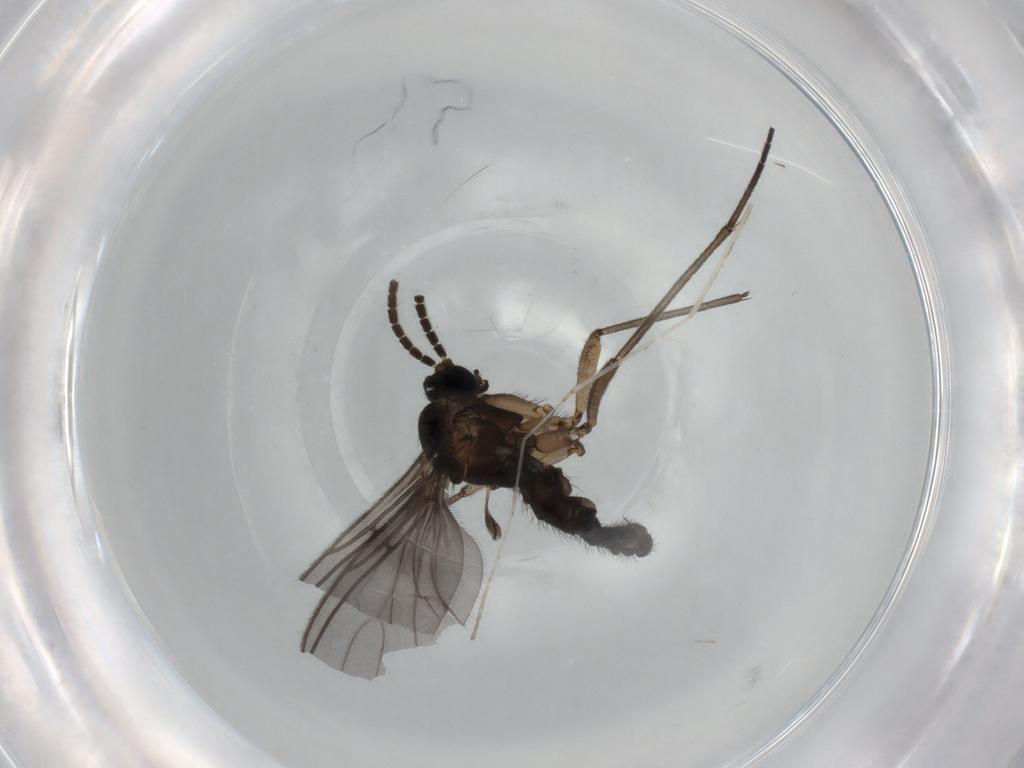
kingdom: Animalia
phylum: Arthropoda
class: Insecta
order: Diptera
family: Sciaridae
